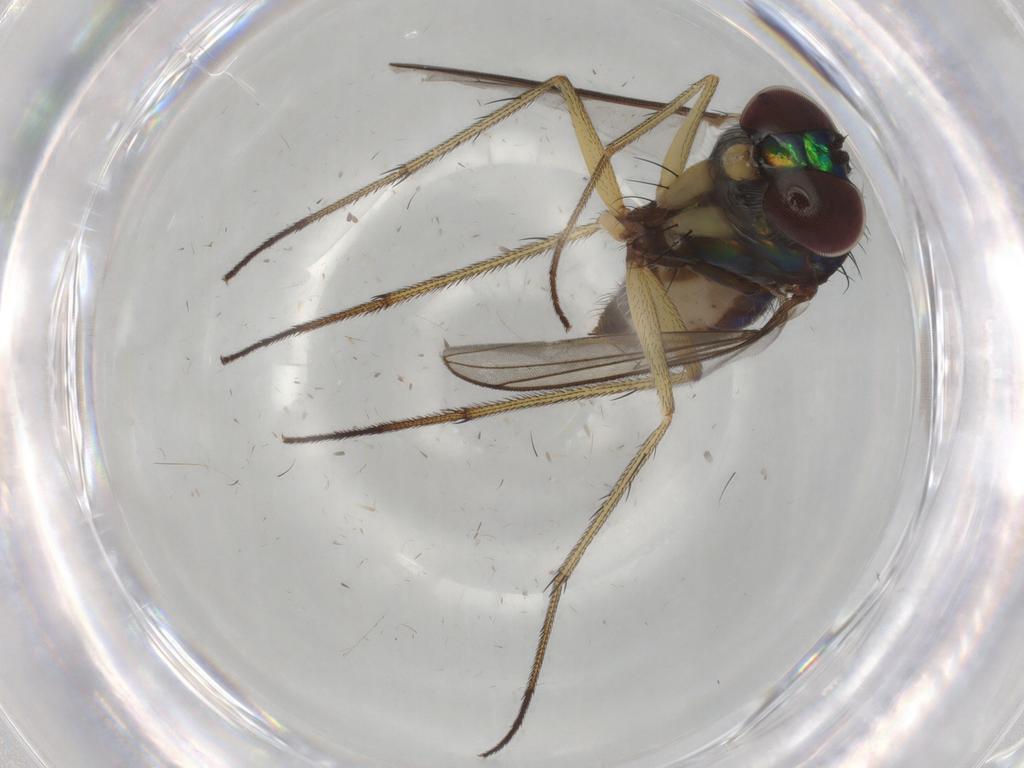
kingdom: Animalia
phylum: Arthropoda
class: Insecta
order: Diptera
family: Dolichopodidae
